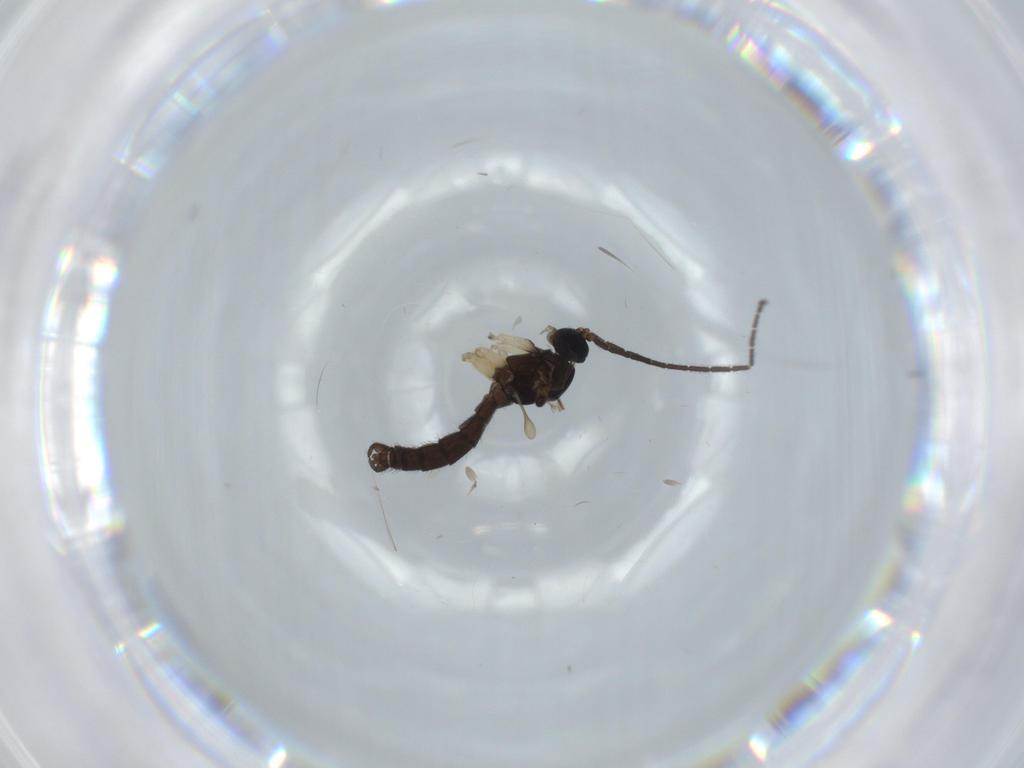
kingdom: Animalia
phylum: Arthropoda
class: Insecta
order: Diptera
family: Sciaridae
